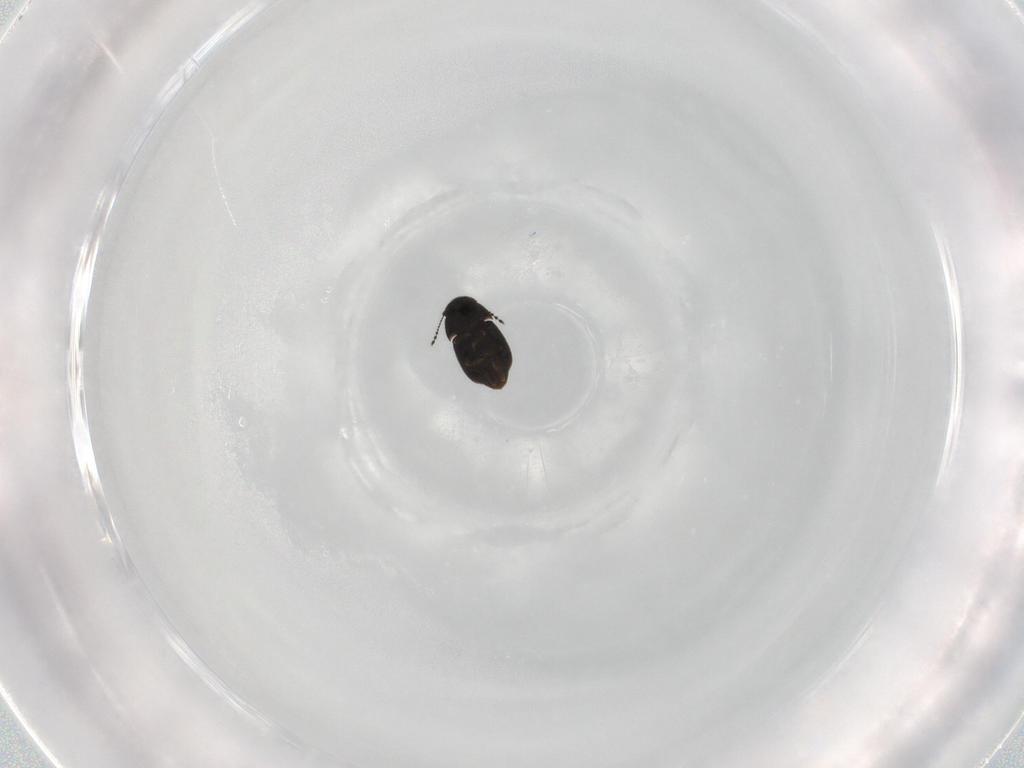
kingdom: Animalia
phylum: Arthropoda
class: Insecta
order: Coleoptera
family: Ptiliidae
